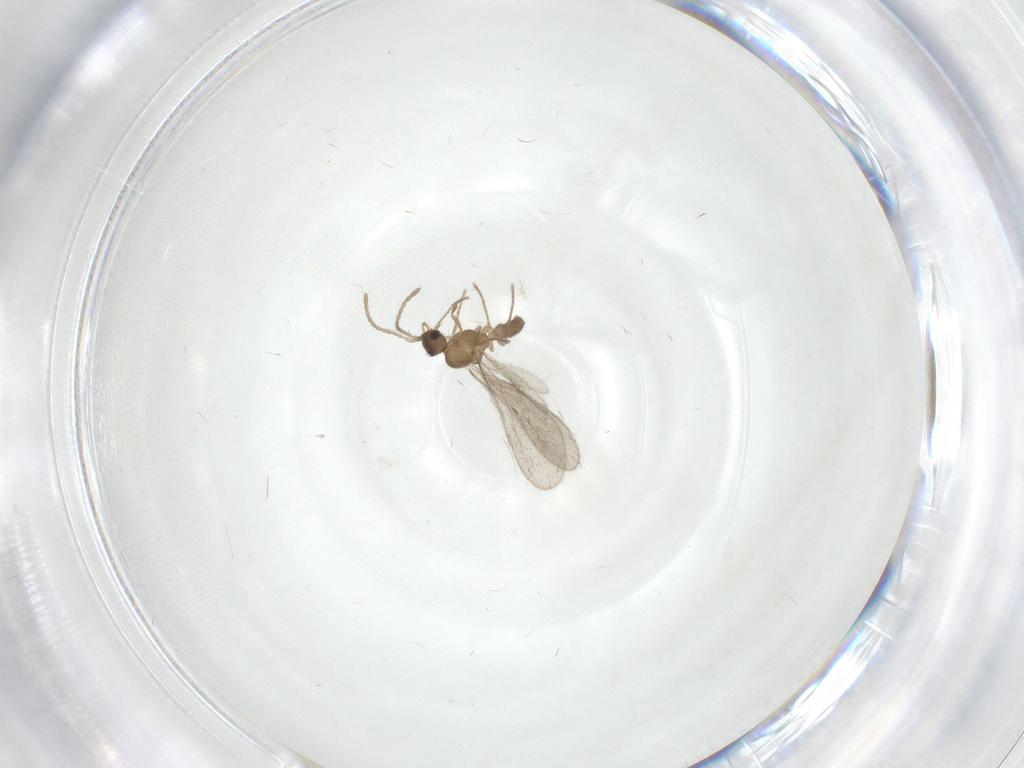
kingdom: Animalia
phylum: Arthropoda
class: Insecta
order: Hymenoptera
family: Formicidae
